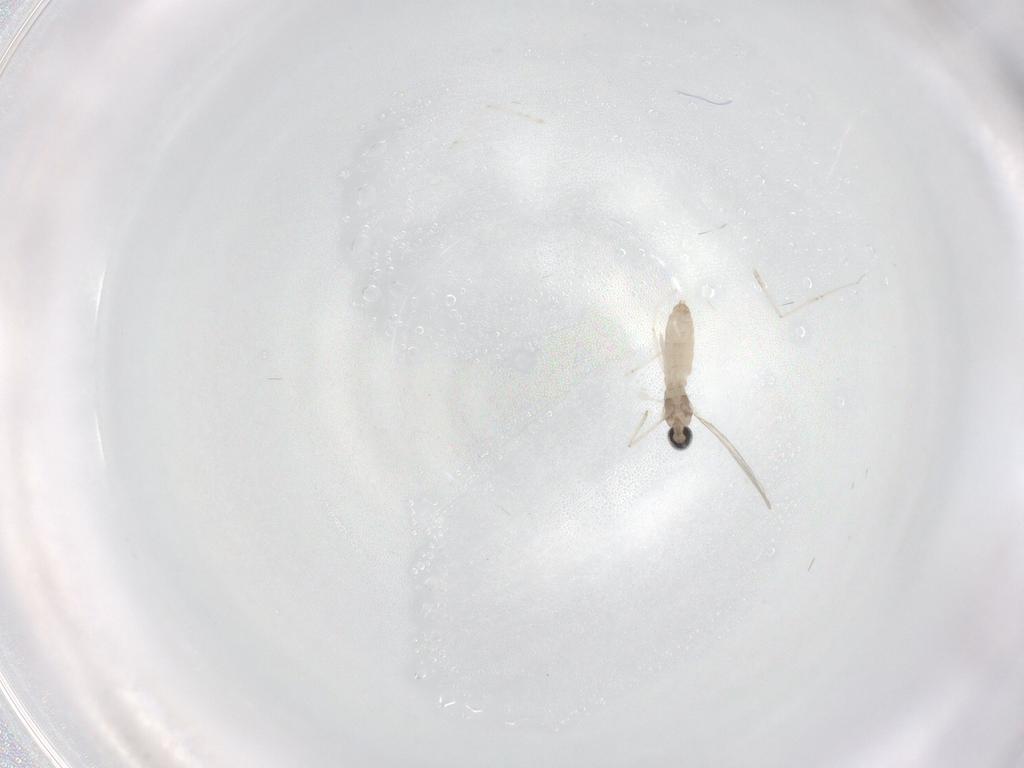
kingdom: Animalia
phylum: Arthropoda
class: Insecta
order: Diptera
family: Cecidomyiidae
